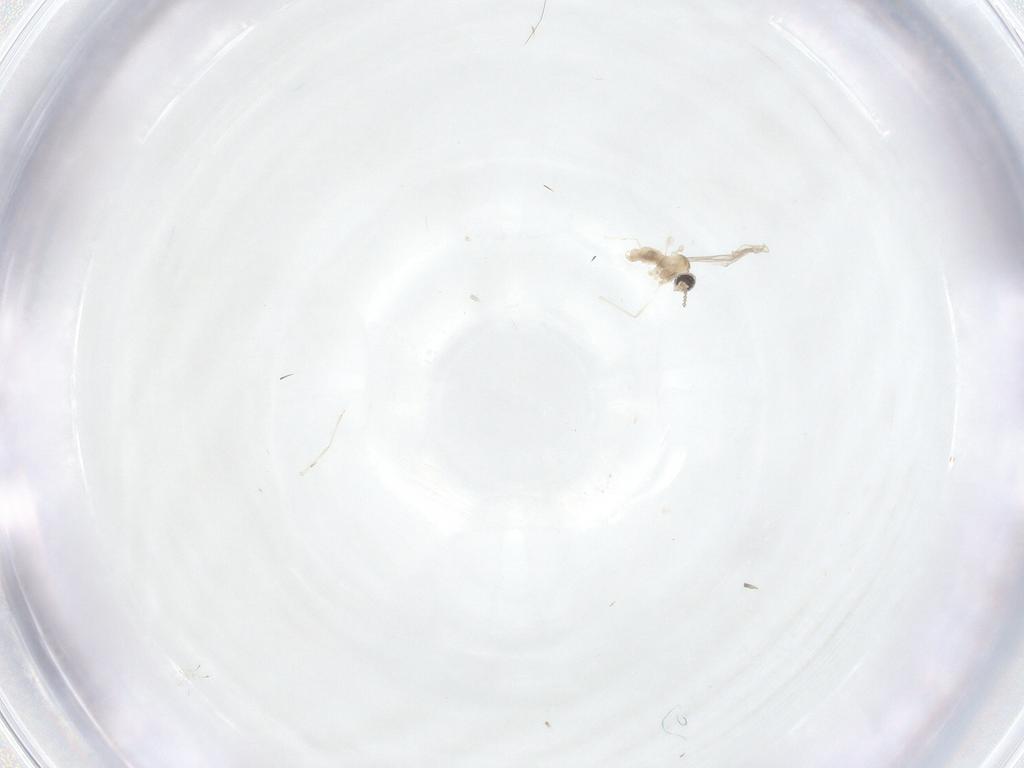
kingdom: Animalia
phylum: Arthropoda
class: Insecta
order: Diptera
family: Cecidomyiidae
